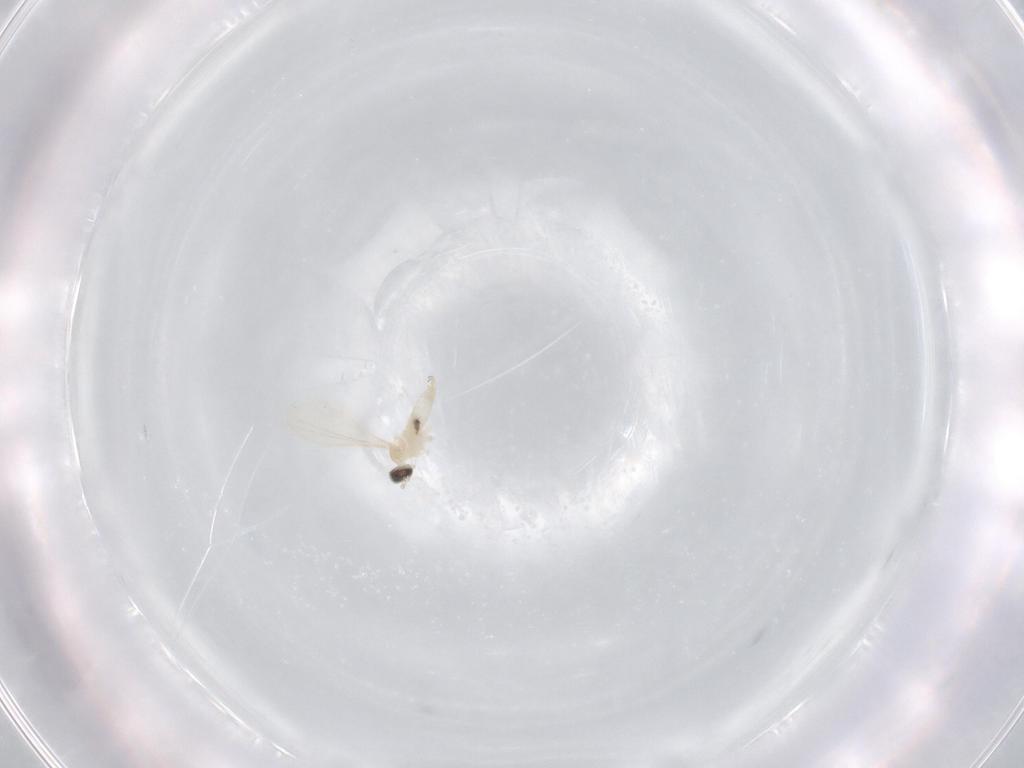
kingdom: Animalia
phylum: Arthropoda
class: Insecta
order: Diptera
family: Cecidomyiidae
